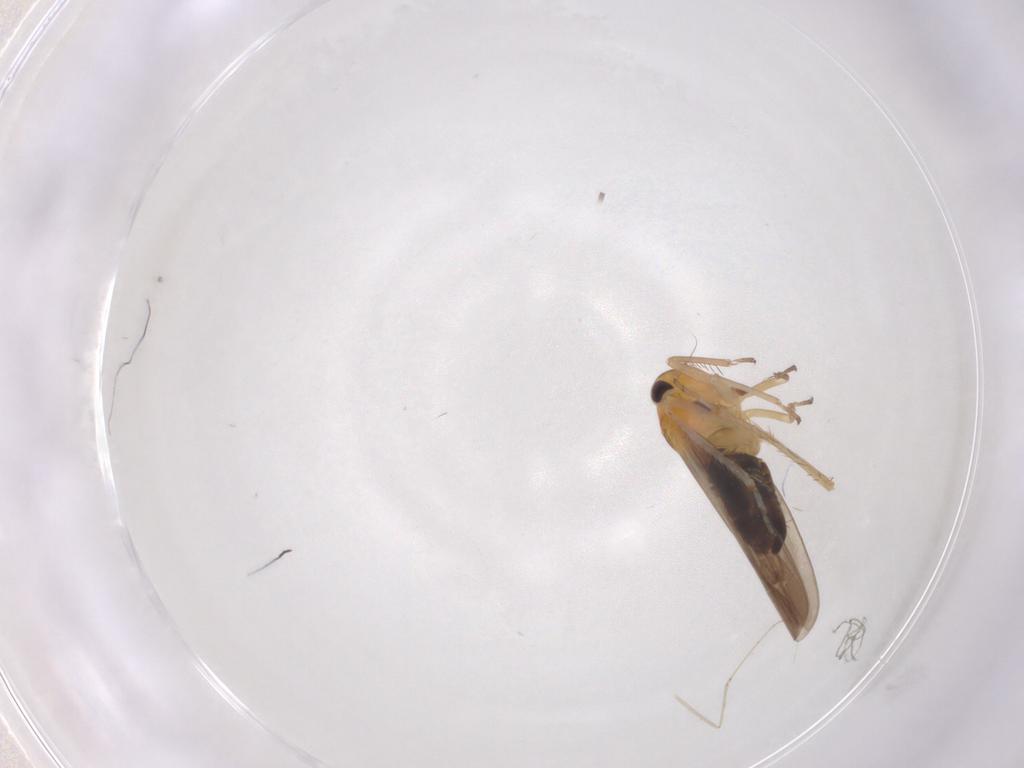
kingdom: Animalia
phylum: Arthropoda
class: Insecta
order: Hemiptera
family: Cicadellidae
